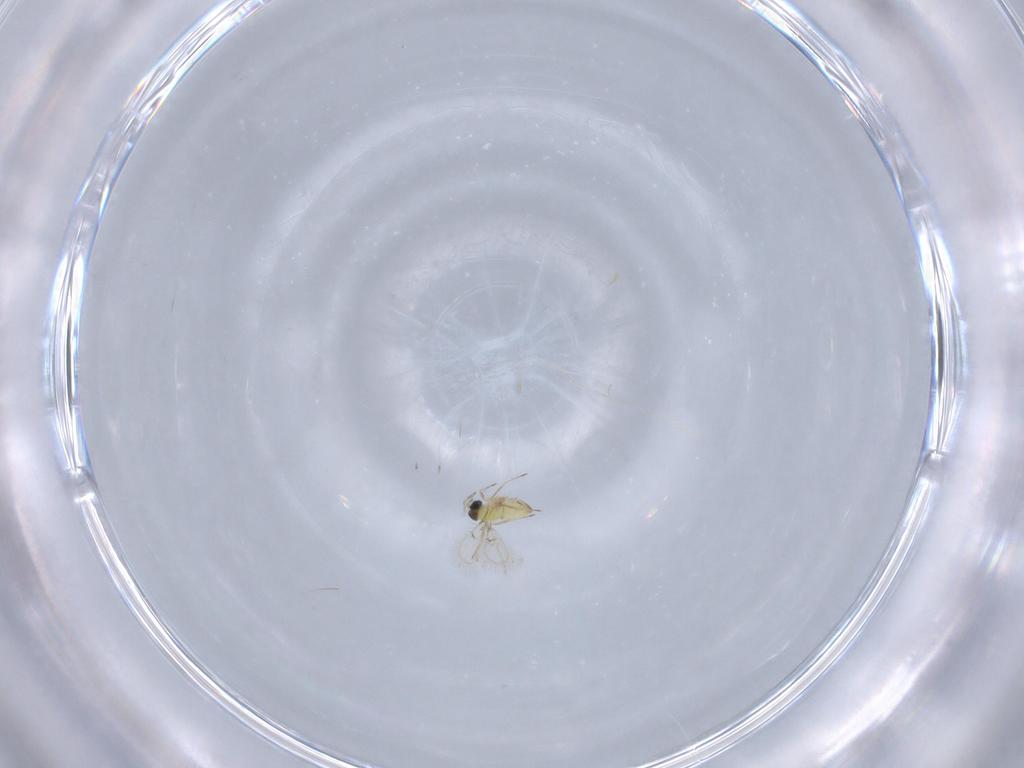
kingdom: Animalia
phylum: Arthropoda
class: Insecta
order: Hymenoptera
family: Trichogrammatidae
